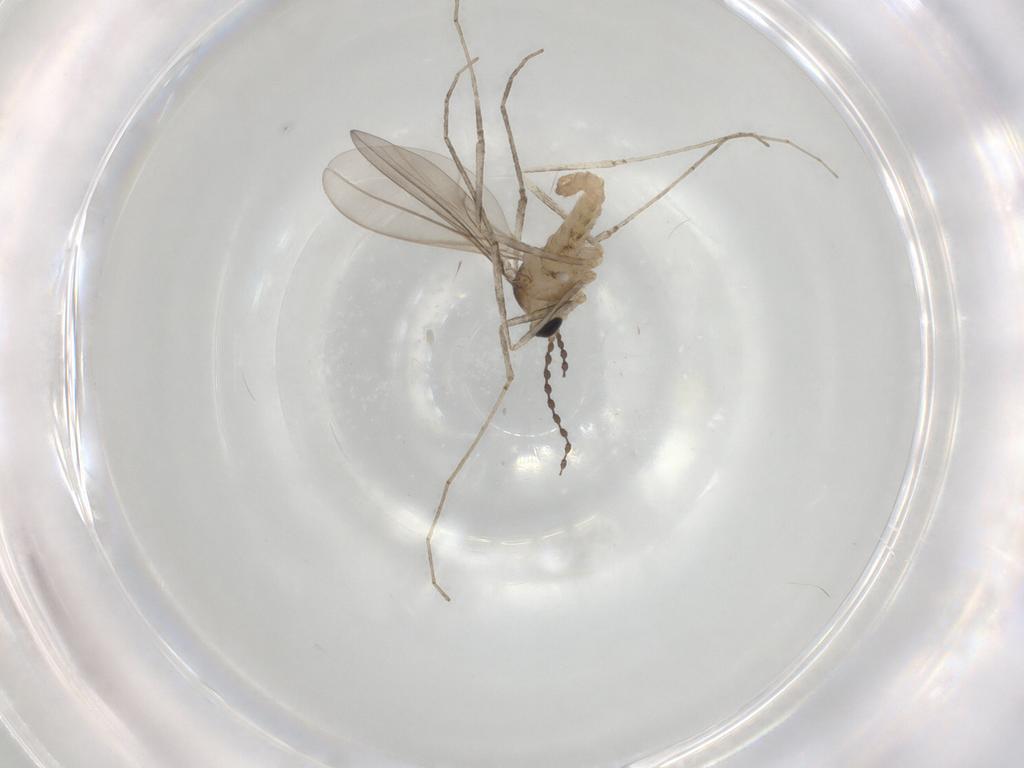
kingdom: Animalia
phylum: Arthropoda
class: Insecta
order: Diptera
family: Cecidomyiidae
